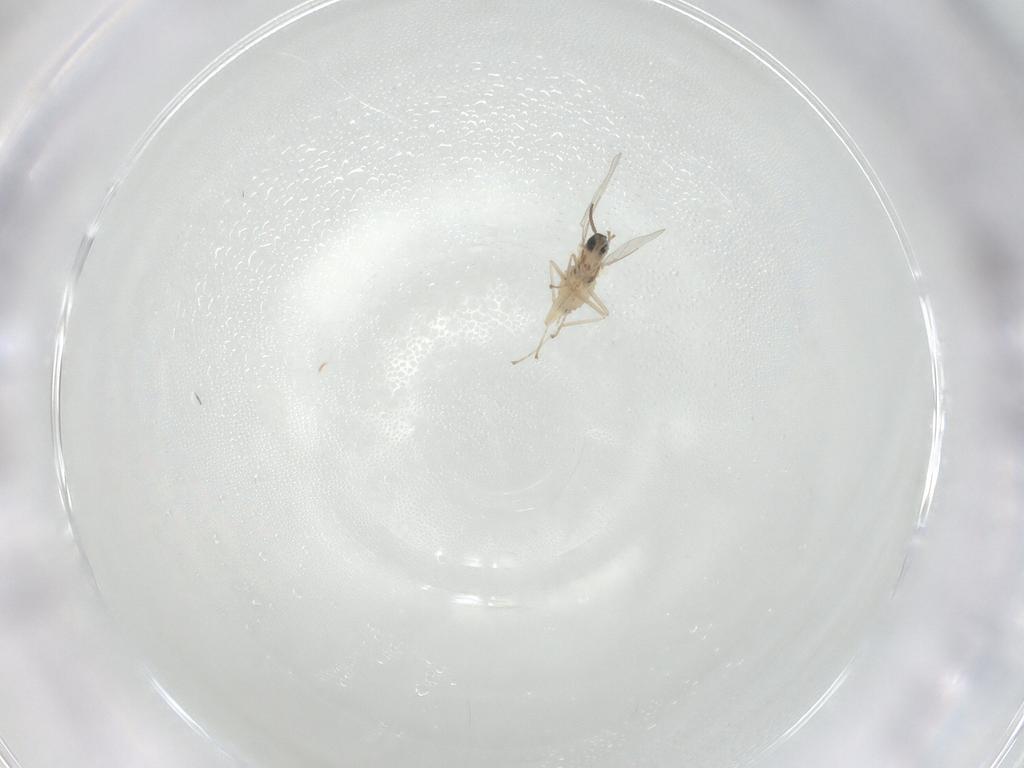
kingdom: Animalia
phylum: Arthropoda
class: Insecta
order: Diptera
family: Cecidomyiidae
